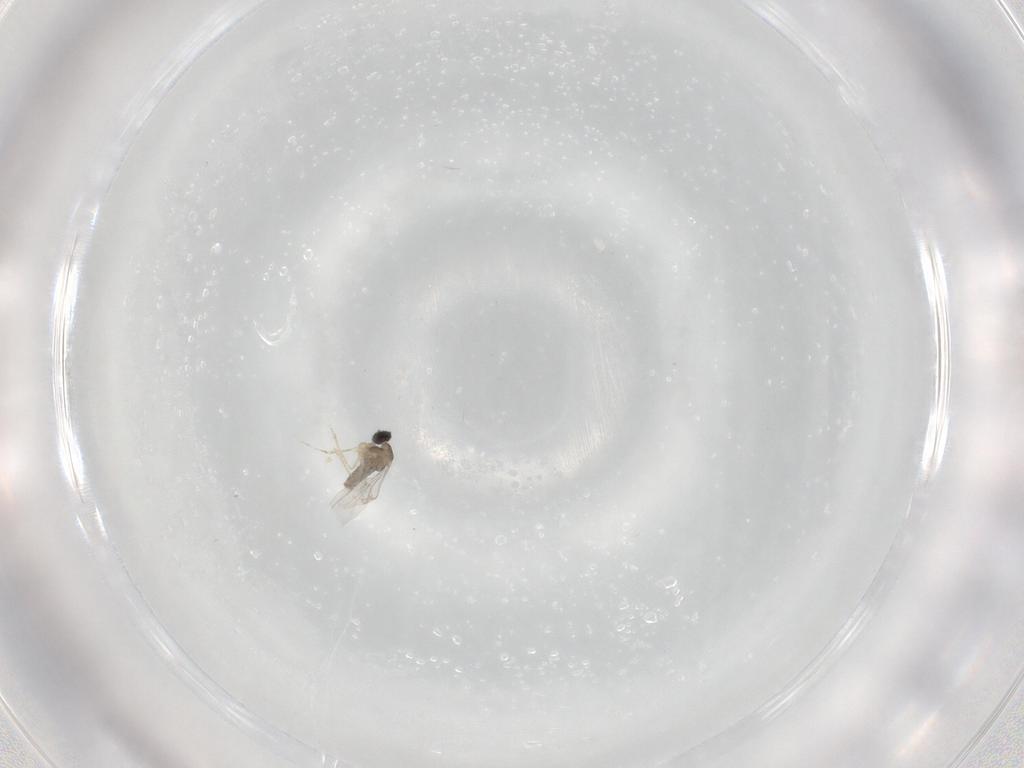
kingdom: Animalia
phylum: Arthropoda
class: Insecta
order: Diptera
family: Cecidomyiidae
